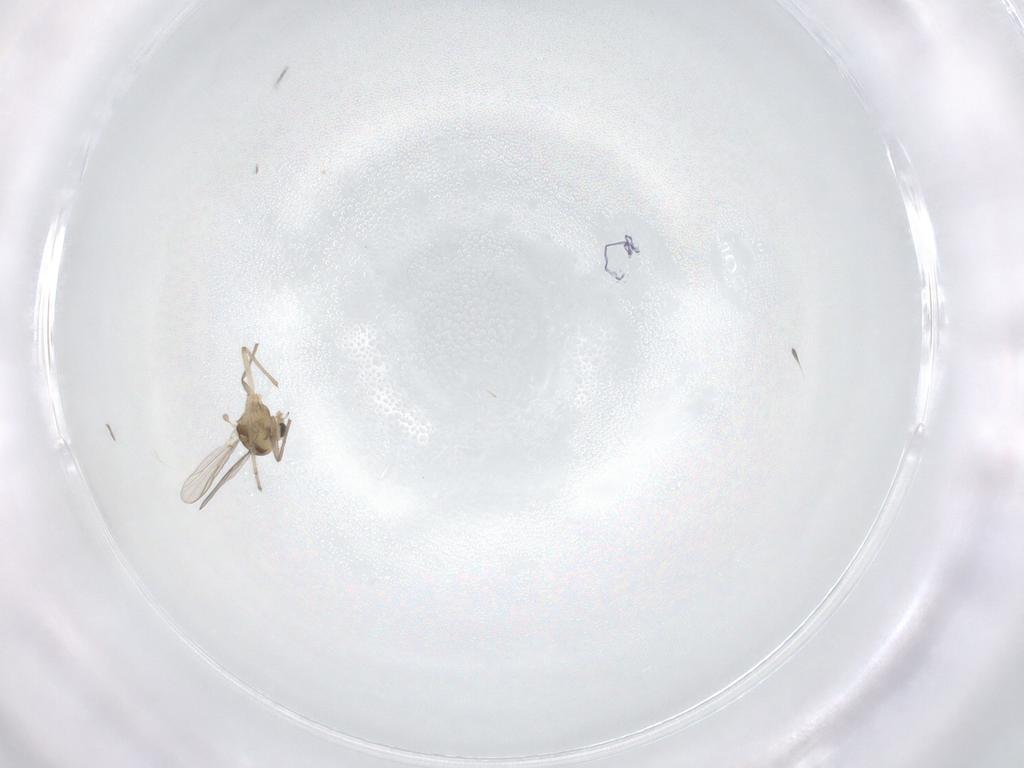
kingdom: Animalia
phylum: Arthropoda
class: Insecta
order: Diptera
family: Chironomidae
